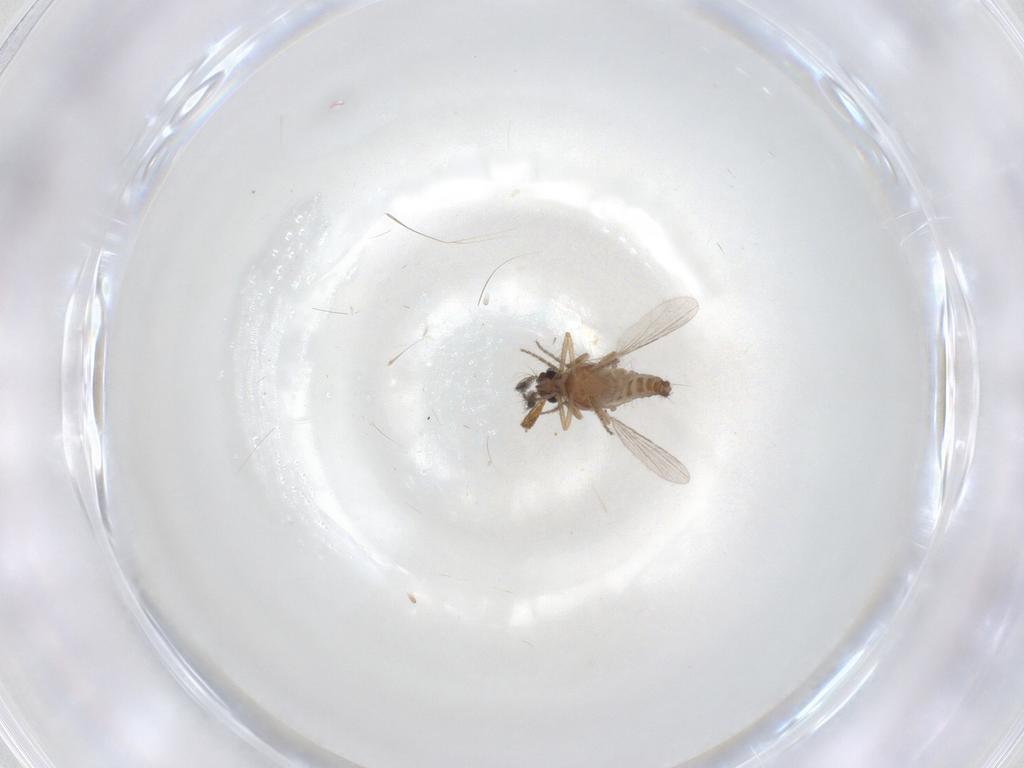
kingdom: Animalia
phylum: Arthropoda
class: Insecta
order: Diptera
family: Ceratopogonidae
